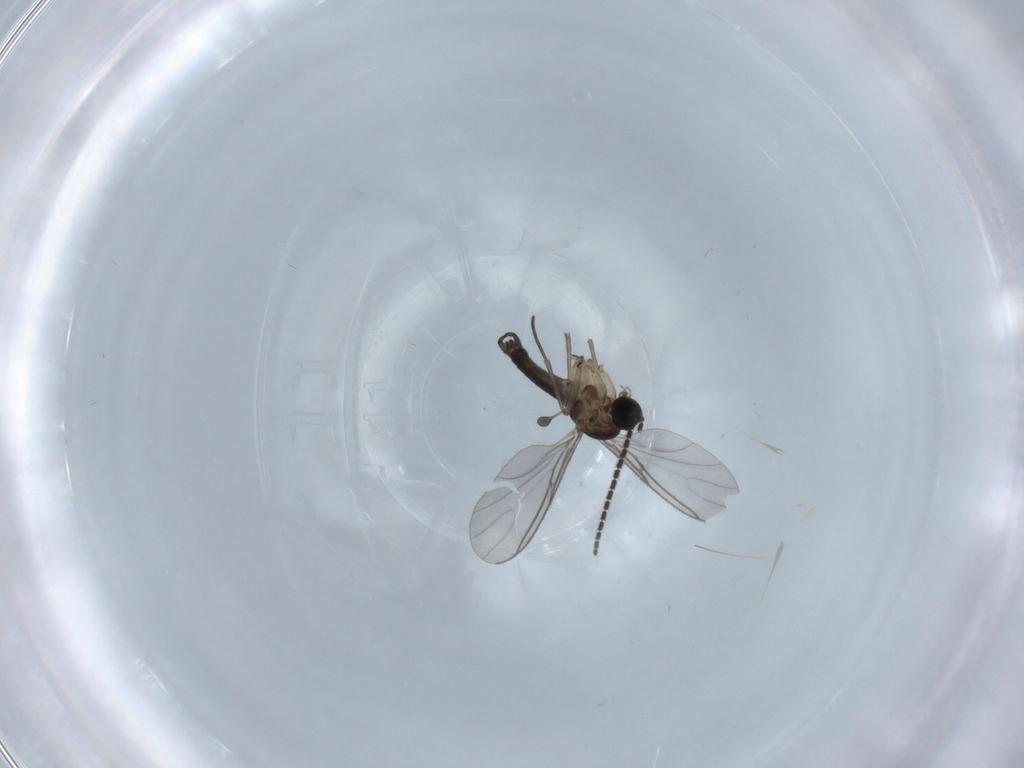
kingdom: Animalia
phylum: Arthropoda
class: Insecta
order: Diptera
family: Sciaridae
